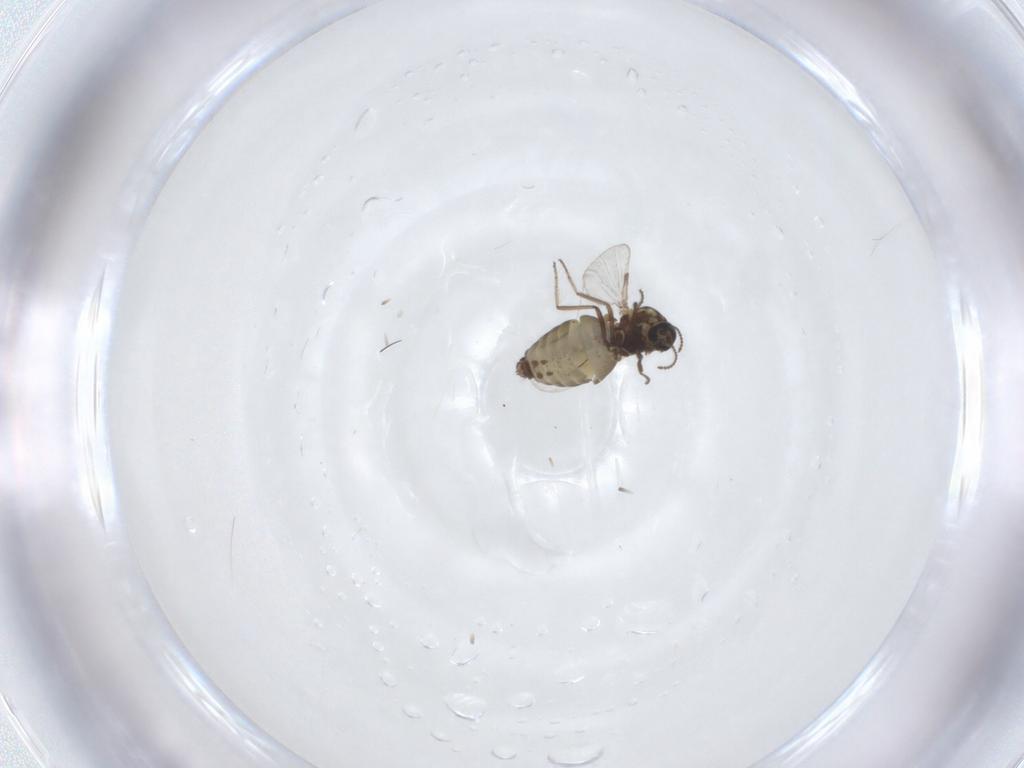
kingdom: Animalia
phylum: Arthropoda
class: Insecta
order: Diptera
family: Ceratopogonidae
